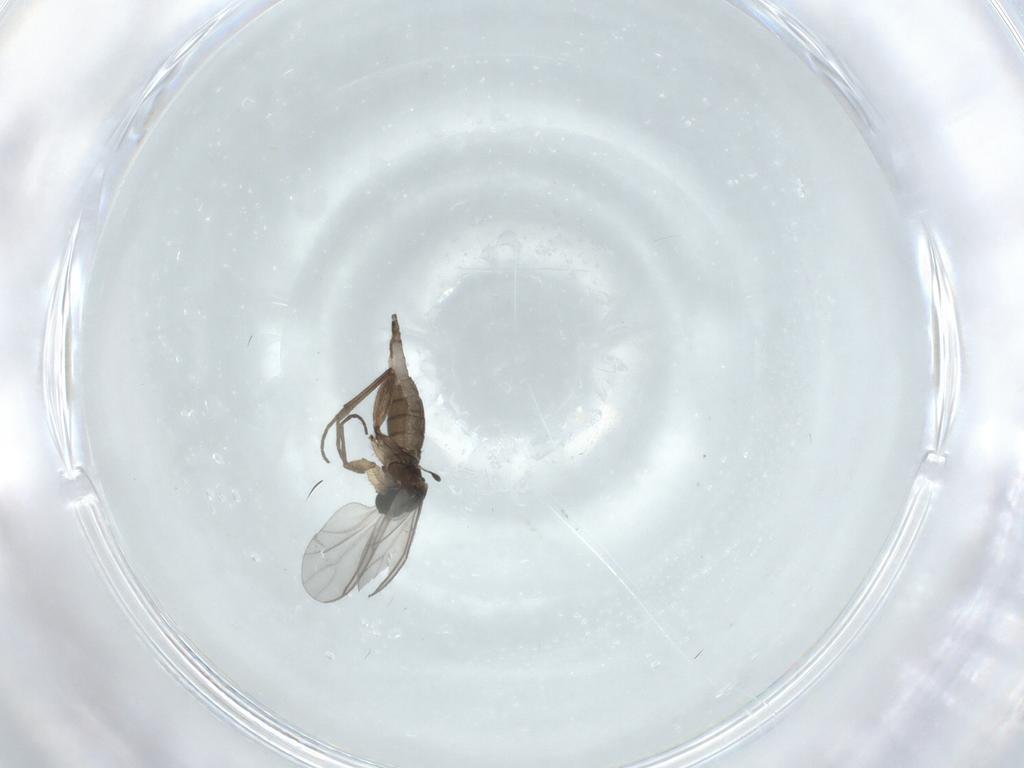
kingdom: Animalia
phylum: Arthropoda
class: Insecta
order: Diptera
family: Sciaridae
